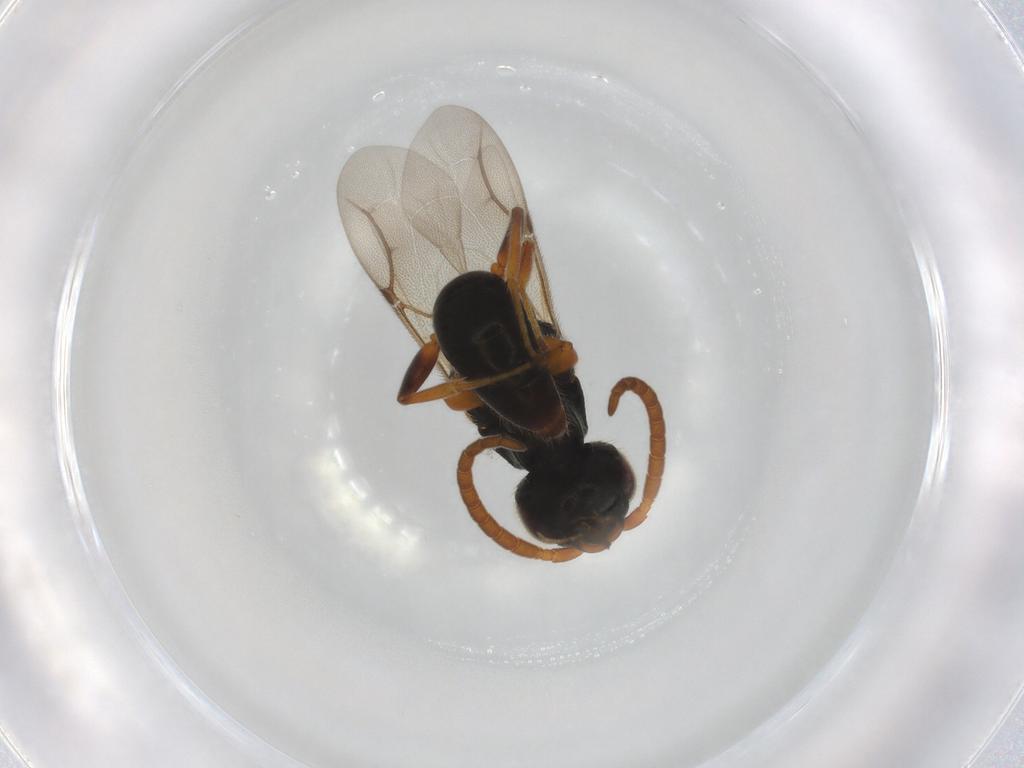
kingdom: Animalia
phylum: Arthropoda
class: Insecta
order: Hymenoptera
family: Bethylidae
